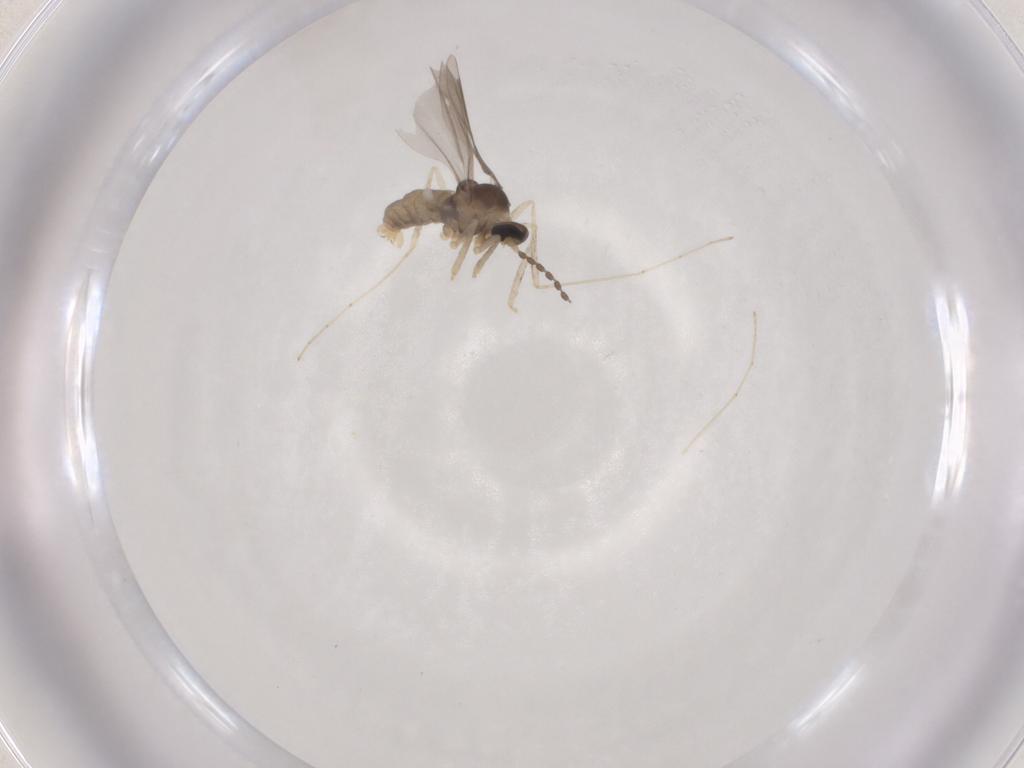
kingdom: Animalia
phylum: Arthropoda
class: Insecta
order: Diptera
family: Cecidomyiidae
